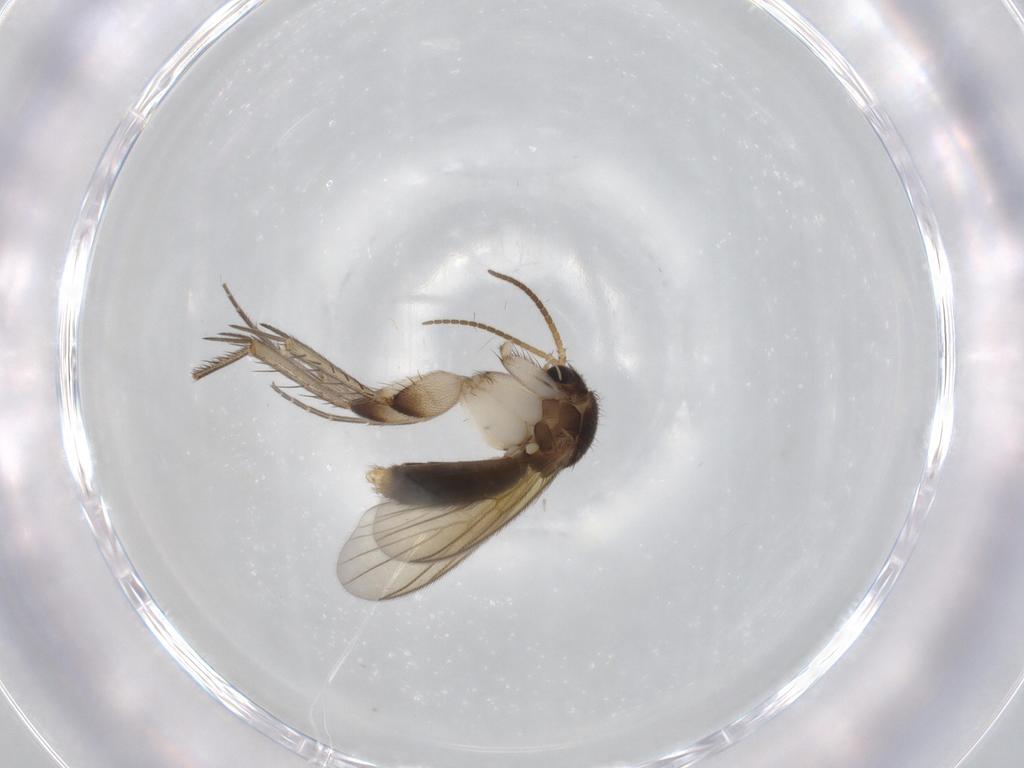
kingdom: Animalia
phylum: Arthropoda
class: Insecta
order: Diptera
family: Mycetophilidae
